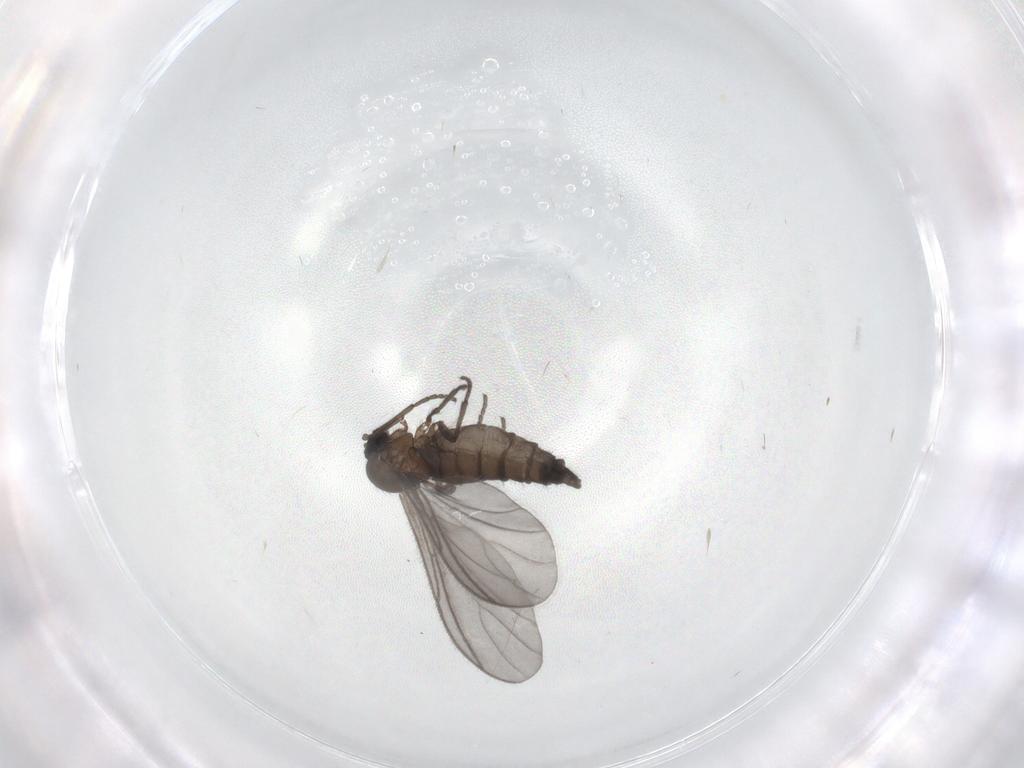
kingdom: Animalia
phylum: Arthropoda
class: Insecta
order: Diptera
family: Sciaridae
